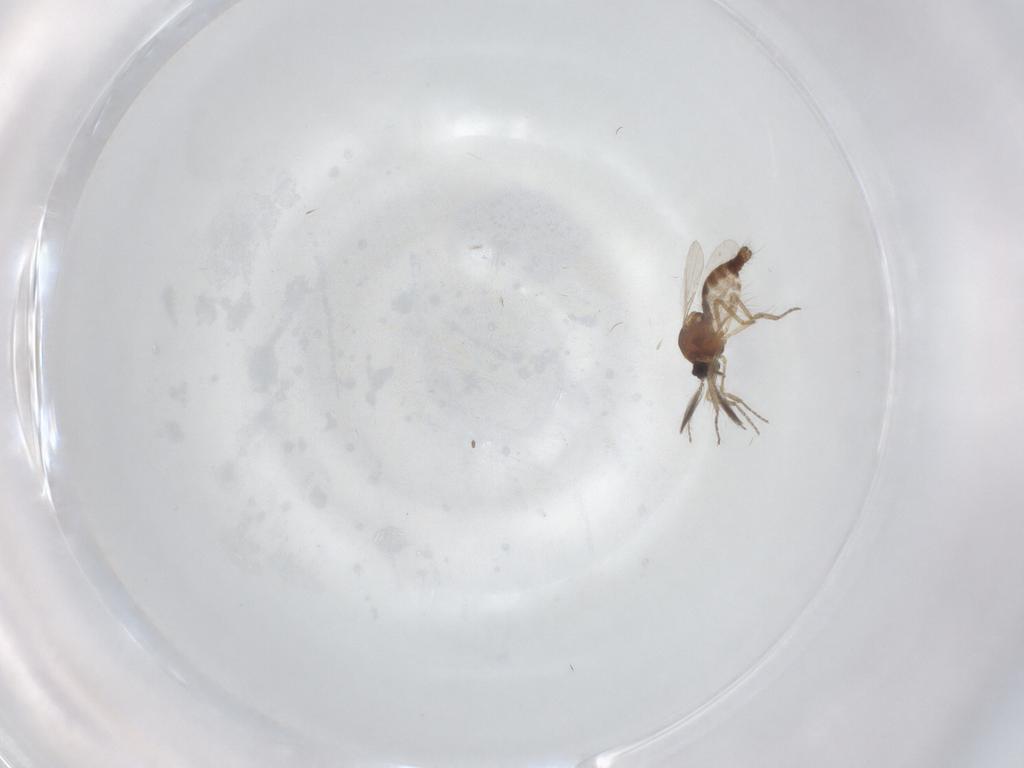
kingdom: Animalia
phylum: Arthropoda
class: Insecta
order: Diptera
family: Ceratopogonidae
